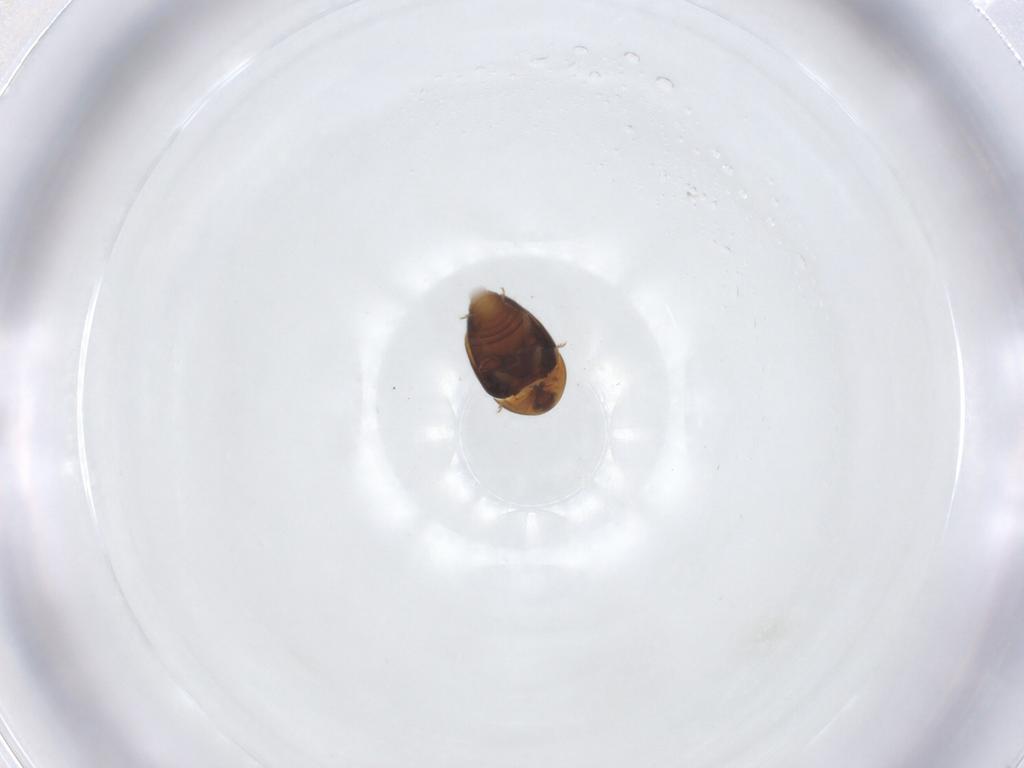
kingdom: Animalia
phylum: Arthropoda
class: Insecta
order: Coleoptera
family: Corylophidae
